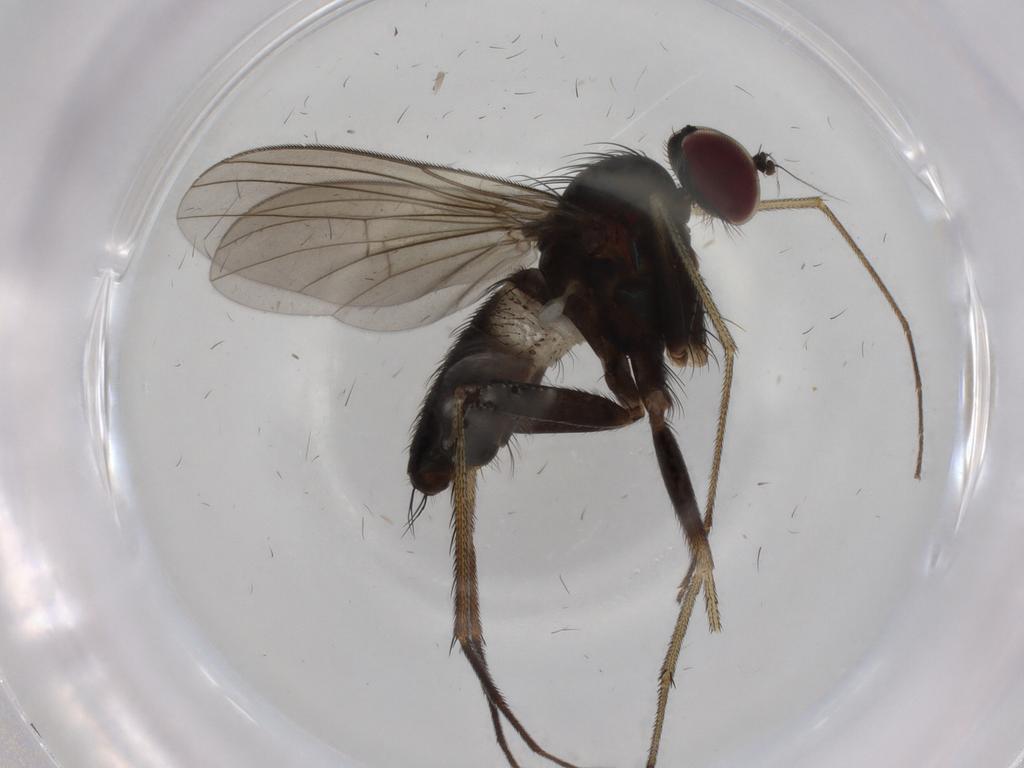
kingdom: Animalia
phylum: Arthropoda
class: Insecta
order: Diptera
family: Dolichopodidae
